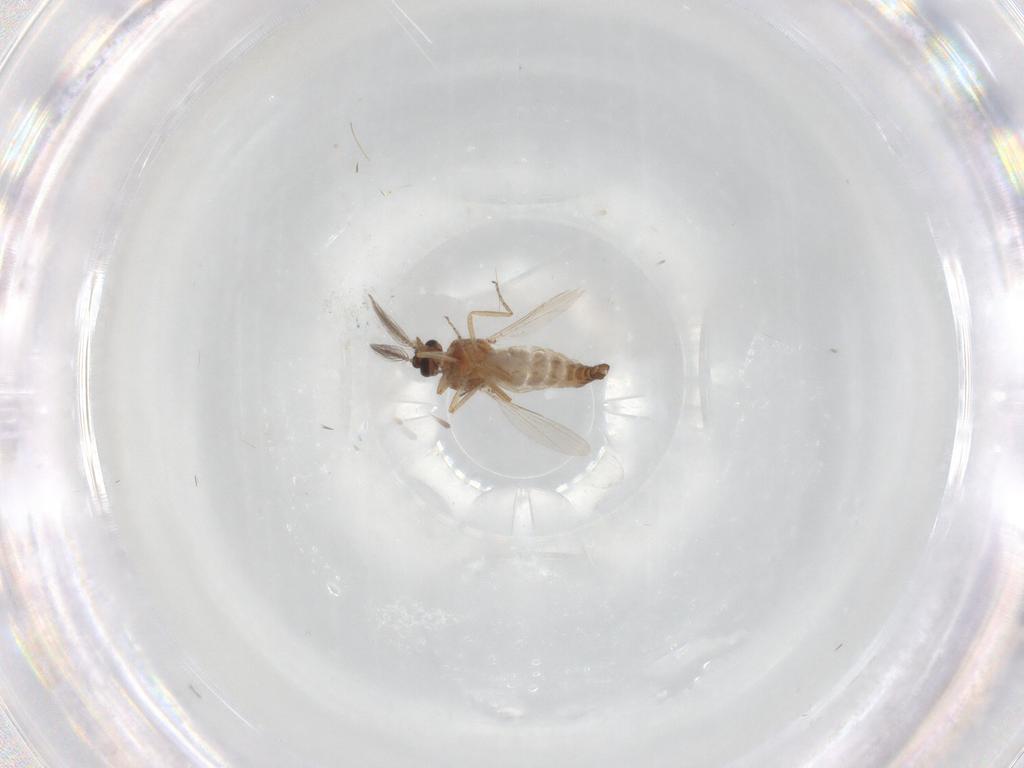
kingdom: Animalia
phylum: Arthropoda
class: Insecta
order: Diptera
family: Ceratopogonidae
